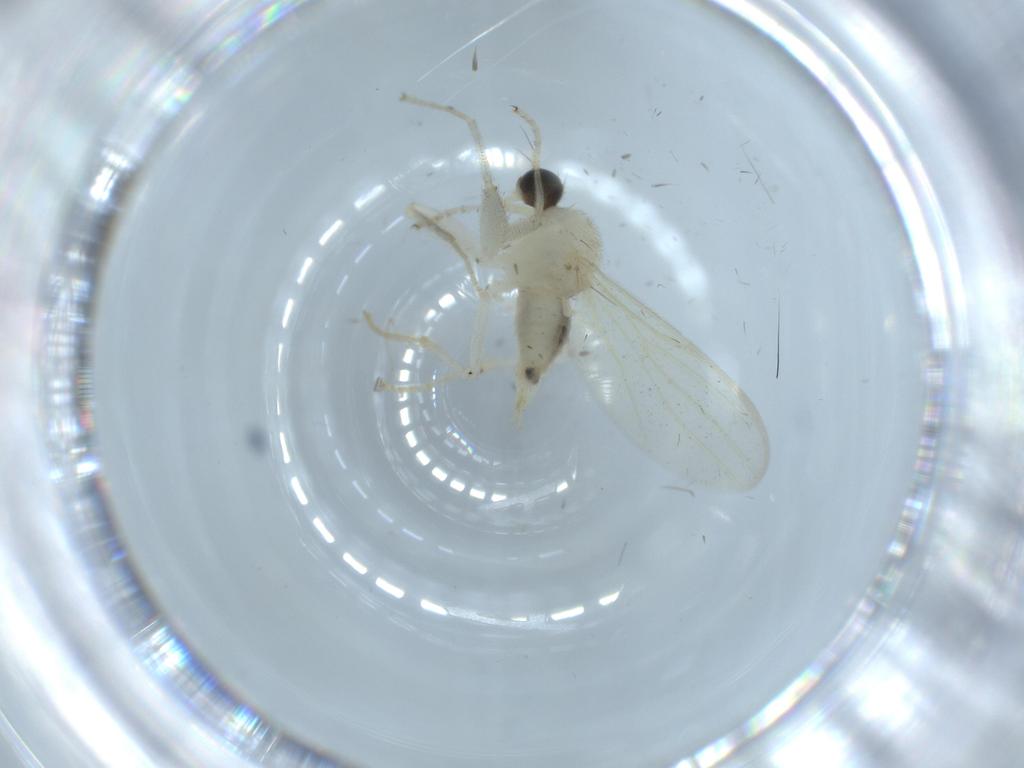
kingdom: Animalia
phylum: Arthropoda
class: Insecta
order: Diptera
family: Hybotidae
